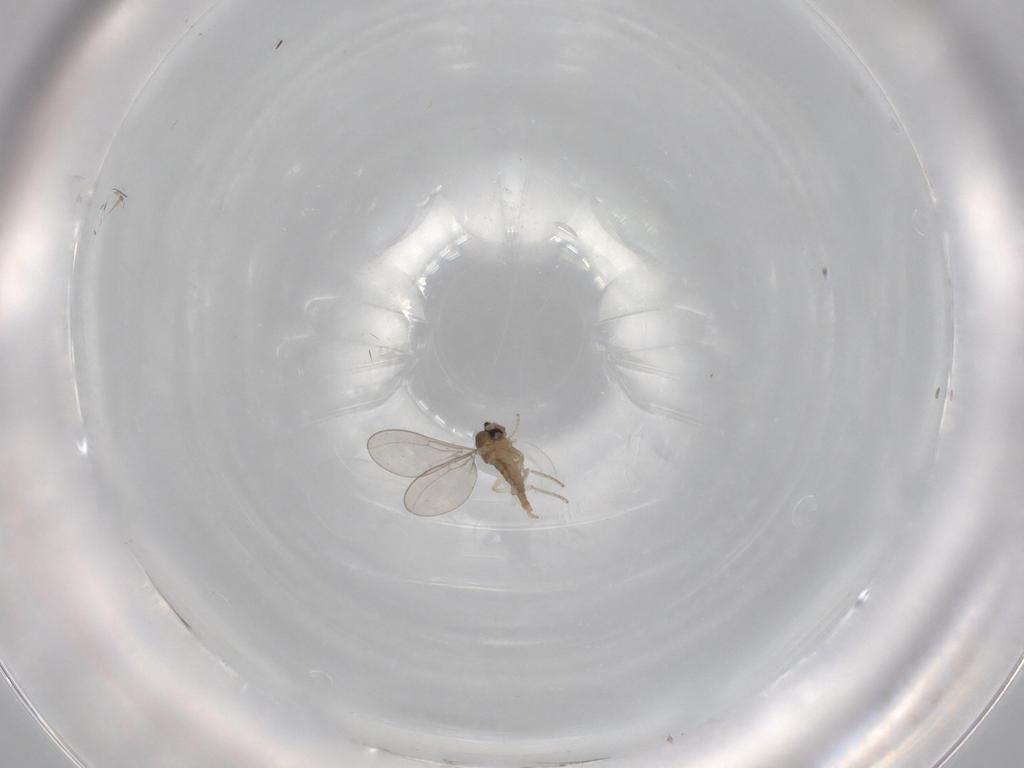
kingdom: Animalia
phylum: Arthropoda
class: Insecta
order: Diptera
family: Cecidomyiidae
